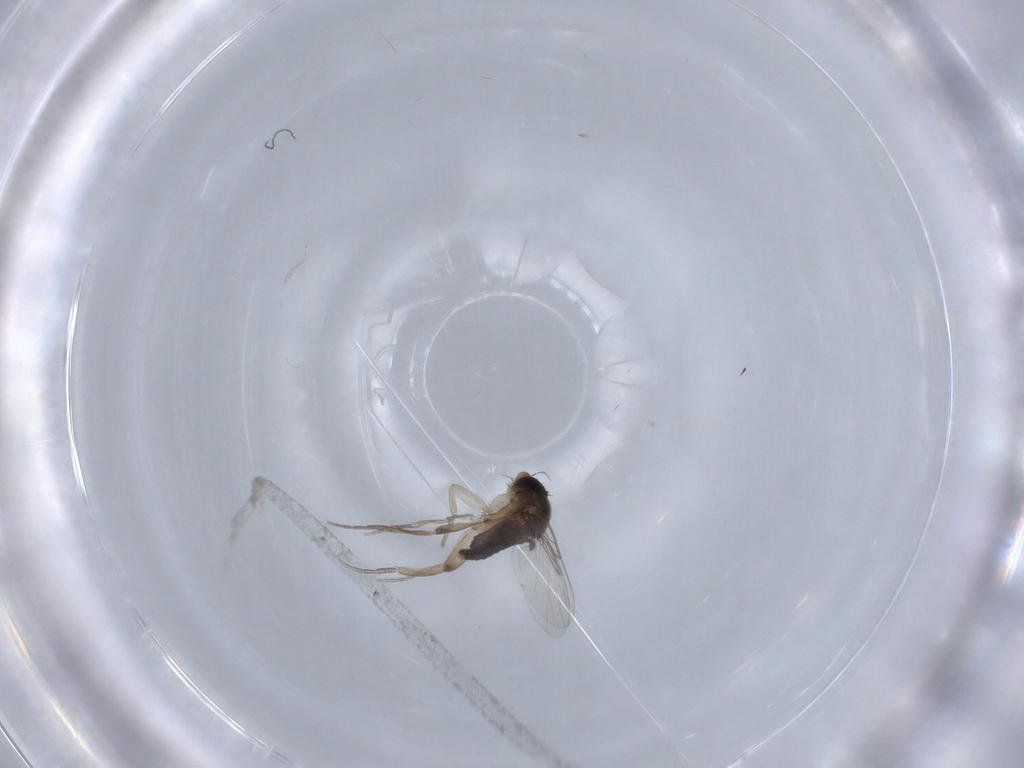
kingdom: Animalia
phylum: Arthropoda
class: Insecta
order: Diptera
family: Phoridae
